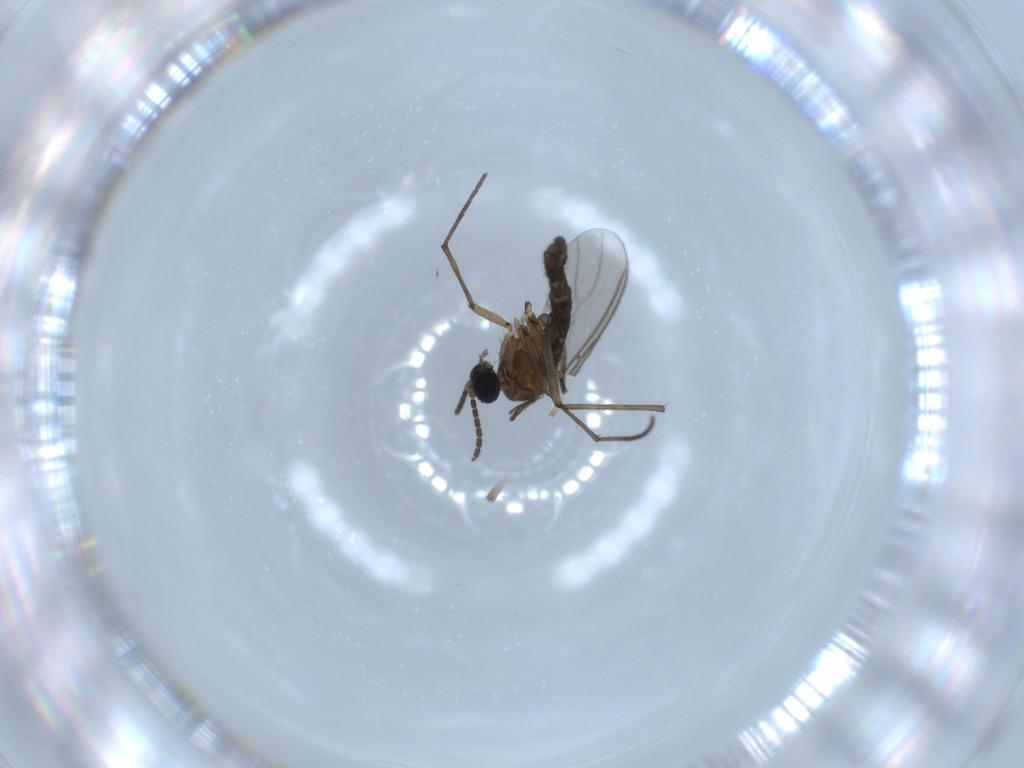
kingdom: Animalia
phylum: Arthropoda
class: Insecta
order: Diptera
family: Sciaridae
